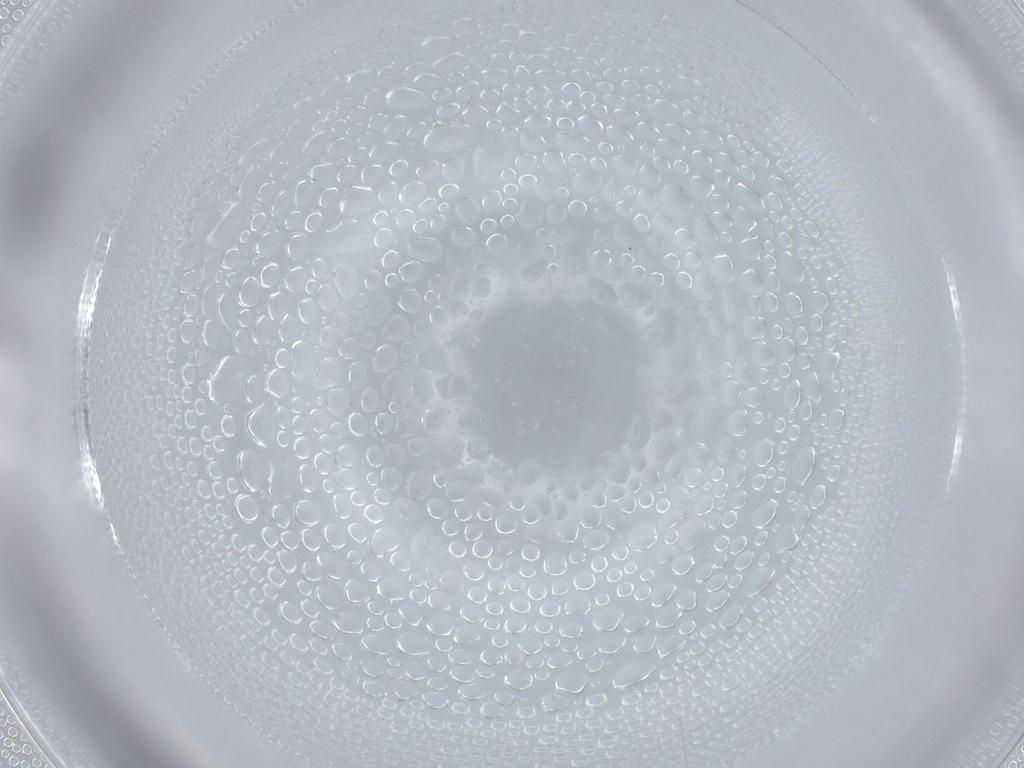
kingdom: Animalia
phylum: Arthropoda
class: Insecta
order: Diptera
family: Cecidomyiidae
